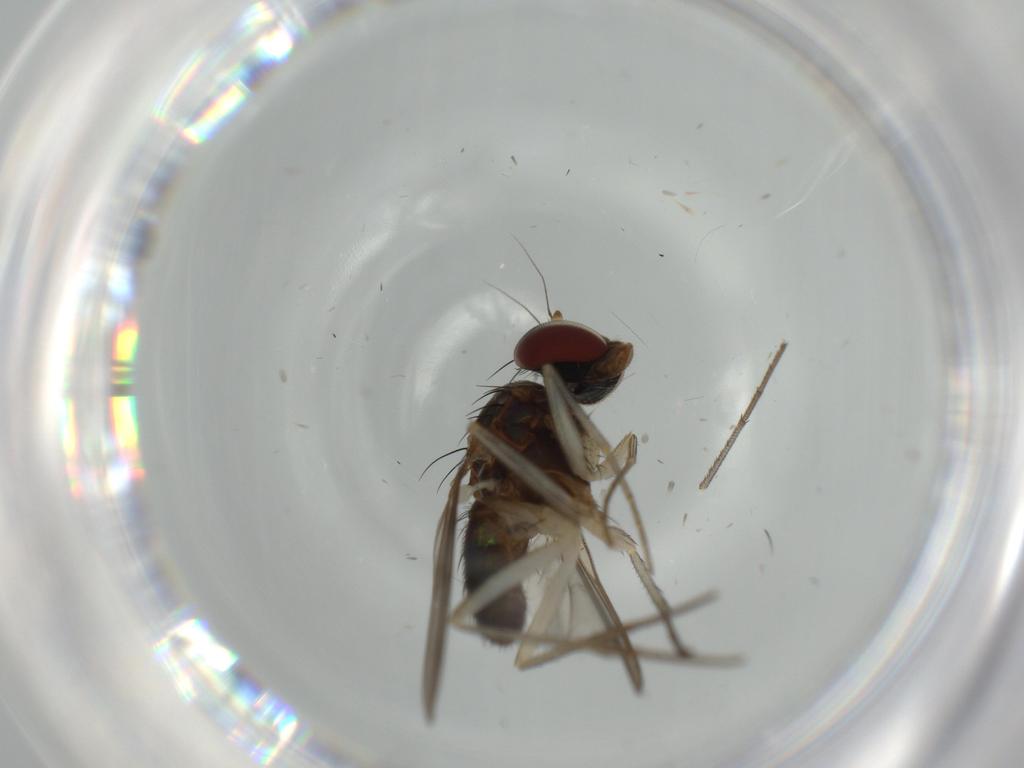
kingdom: Animalia
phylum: Arthropoda
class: Insecta
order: Diptera
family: Dolichopodidae
